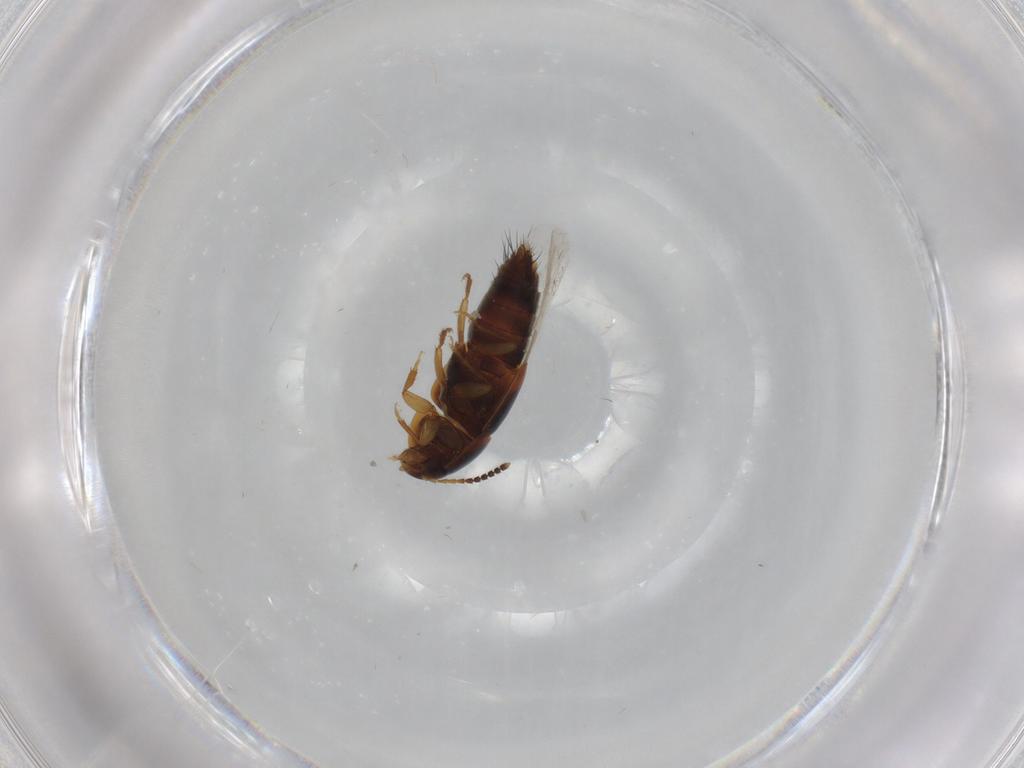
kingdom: Animalia
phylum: Arthropoda
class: Insecta
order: Coleoptera
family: Staphylinidae
